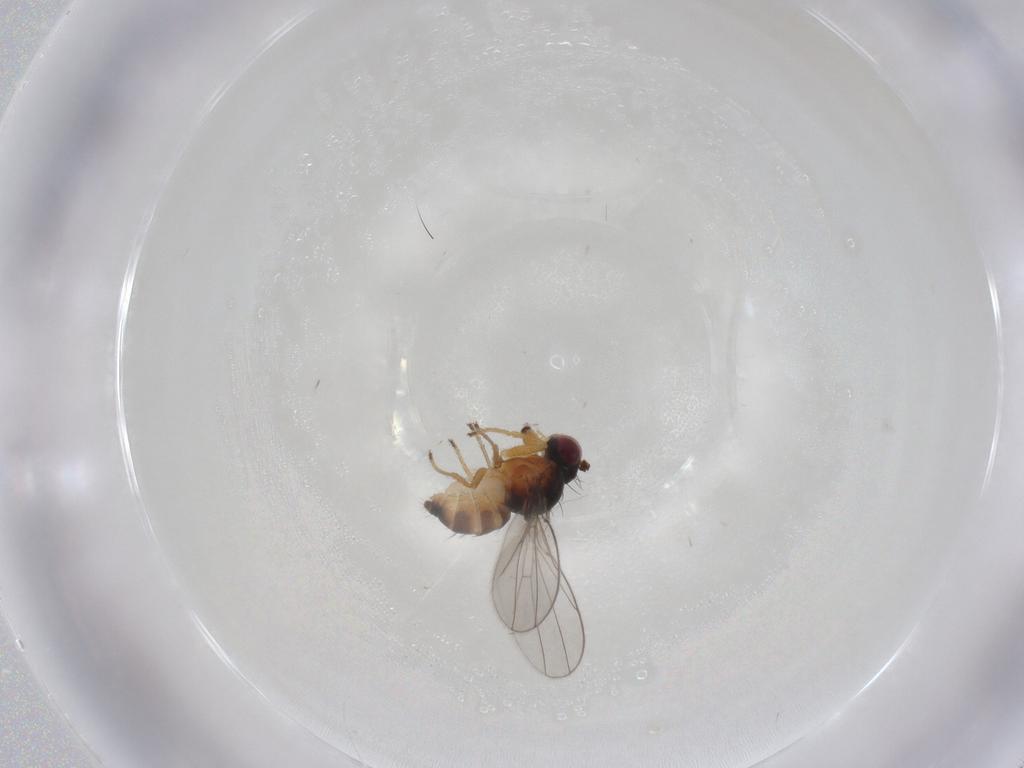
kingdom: Animalia
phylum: Arthropoda
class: Insecta
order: Diptera
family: Ephydridae
